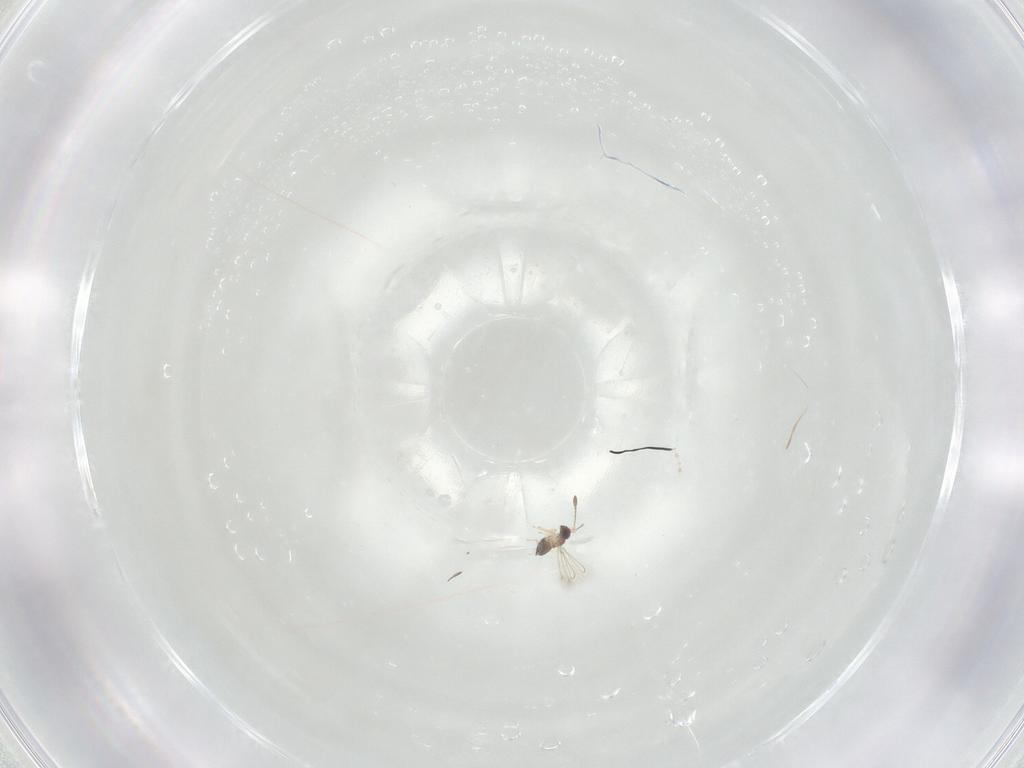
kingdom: Animalia
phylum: Arthropoda
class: Insecta
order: Lepidoptera
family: Lasiocampidae
